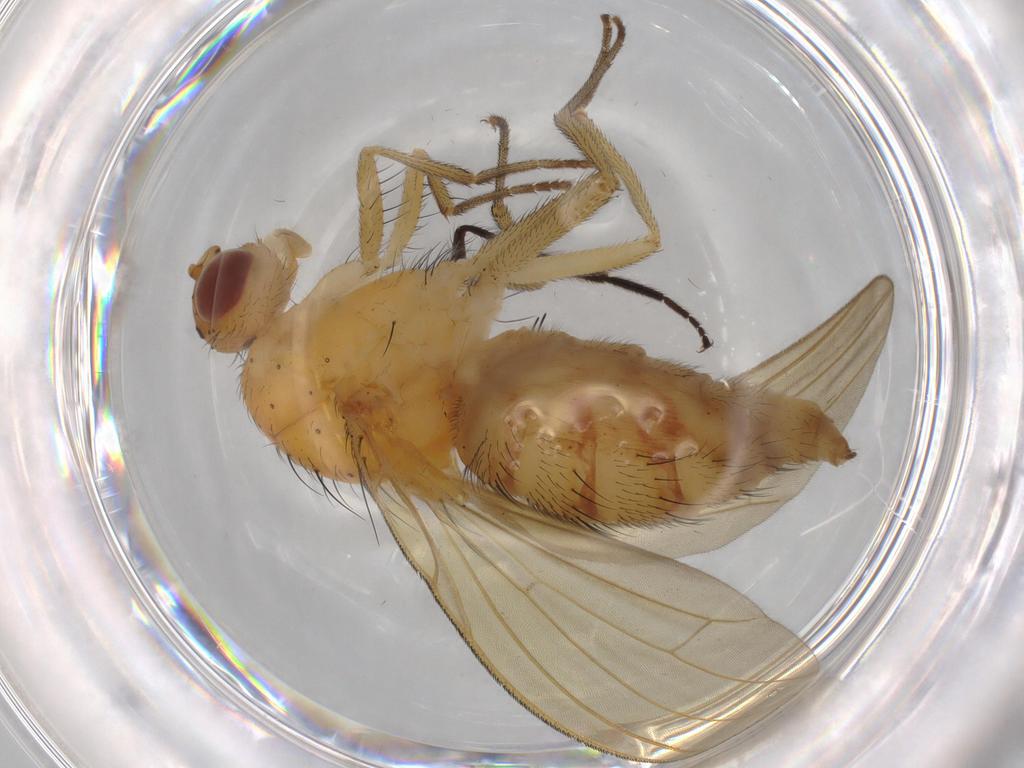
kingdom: Animalia
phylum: Arthropoda
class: Insecta
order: Diptera
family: Hybotidae
